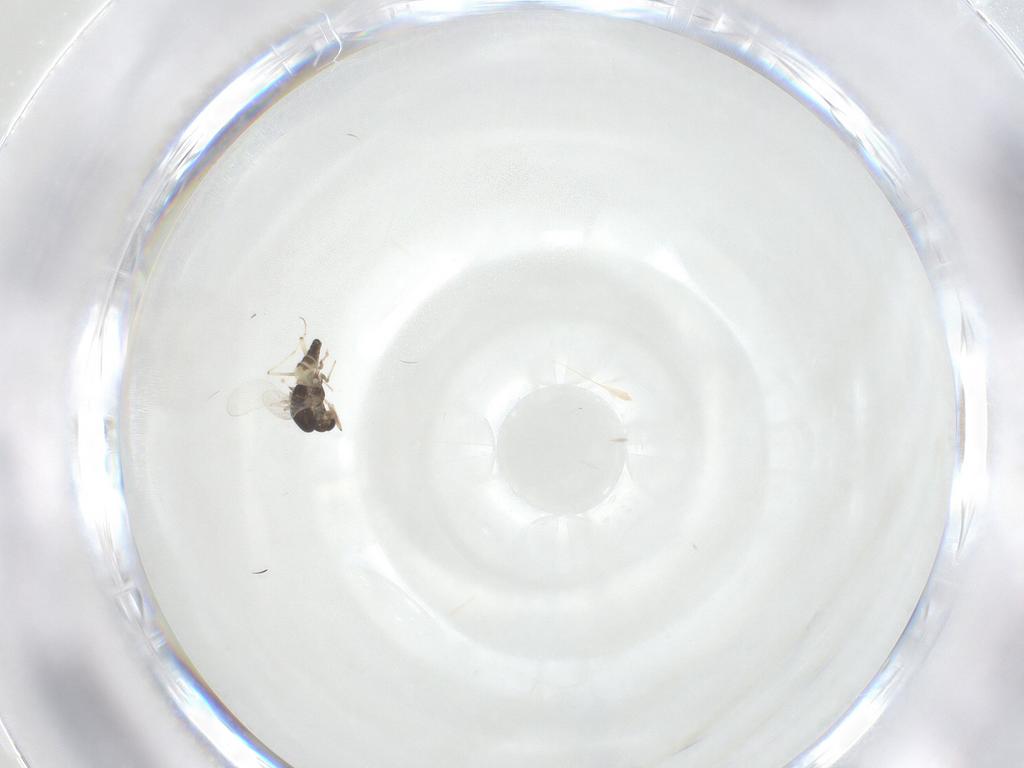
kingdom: Animalia
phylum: Arthropoda
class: Insecta
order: Diptera
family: Chironomidae
